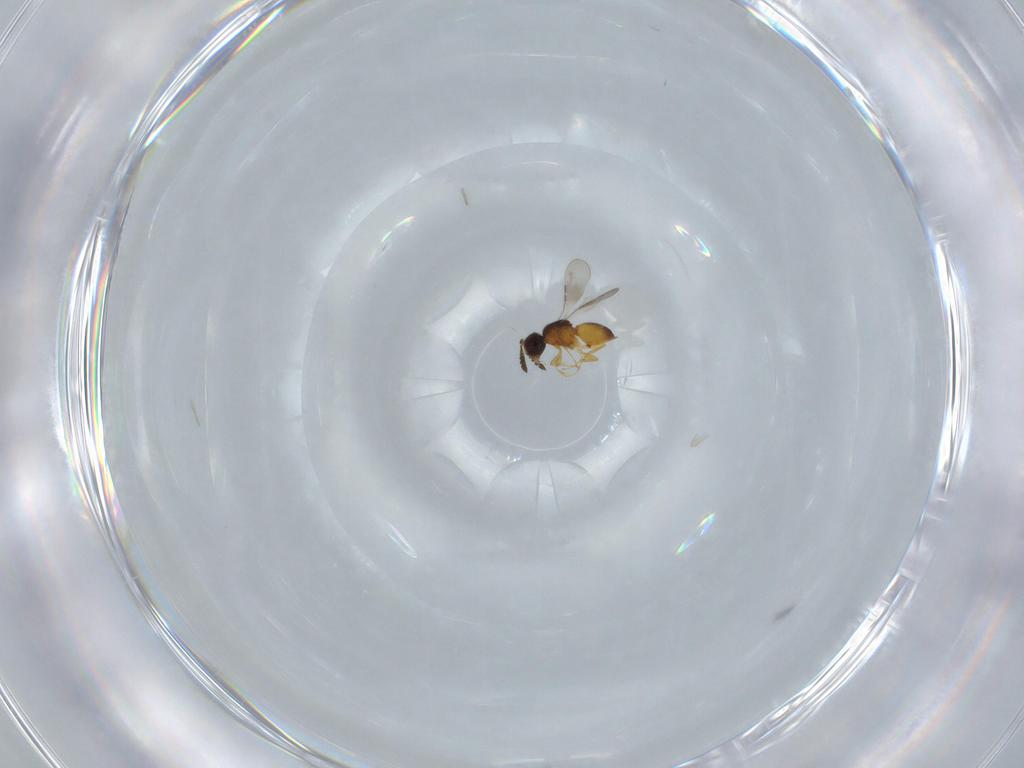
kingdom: Animalia
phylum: Arthropoda
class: Insecta
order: Hymenoptera
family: Ceraphronidae
